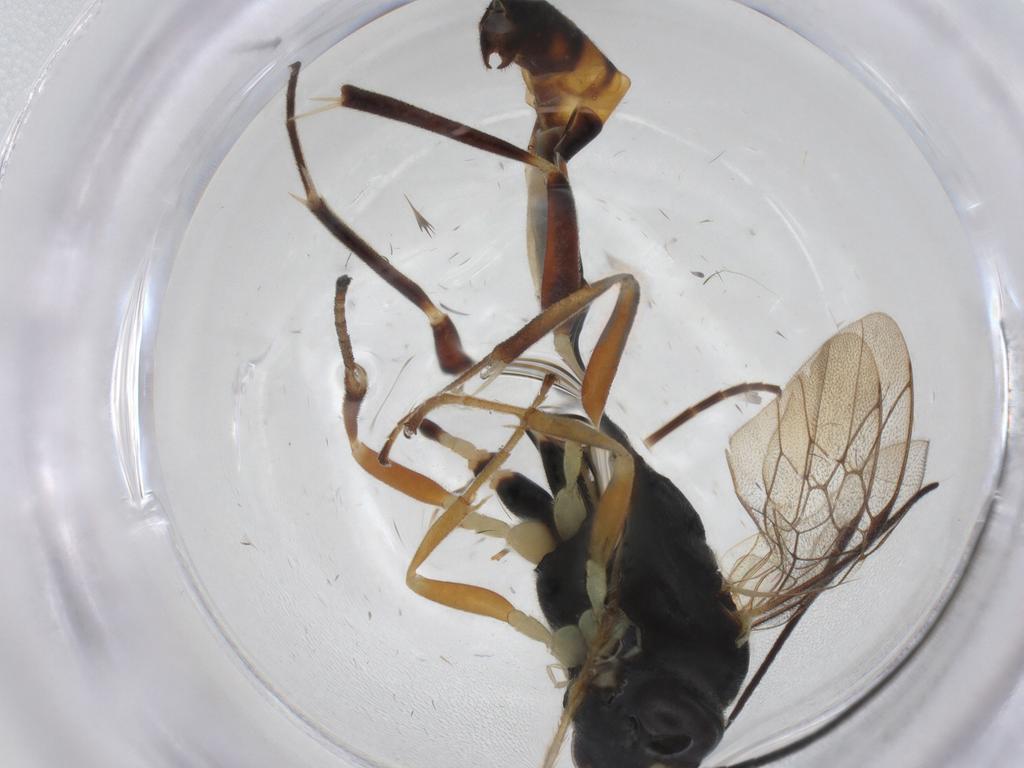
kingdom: Animalia
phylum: Arthropoda
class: Insecta
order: Hymenoptera
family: Ichneumonidae
